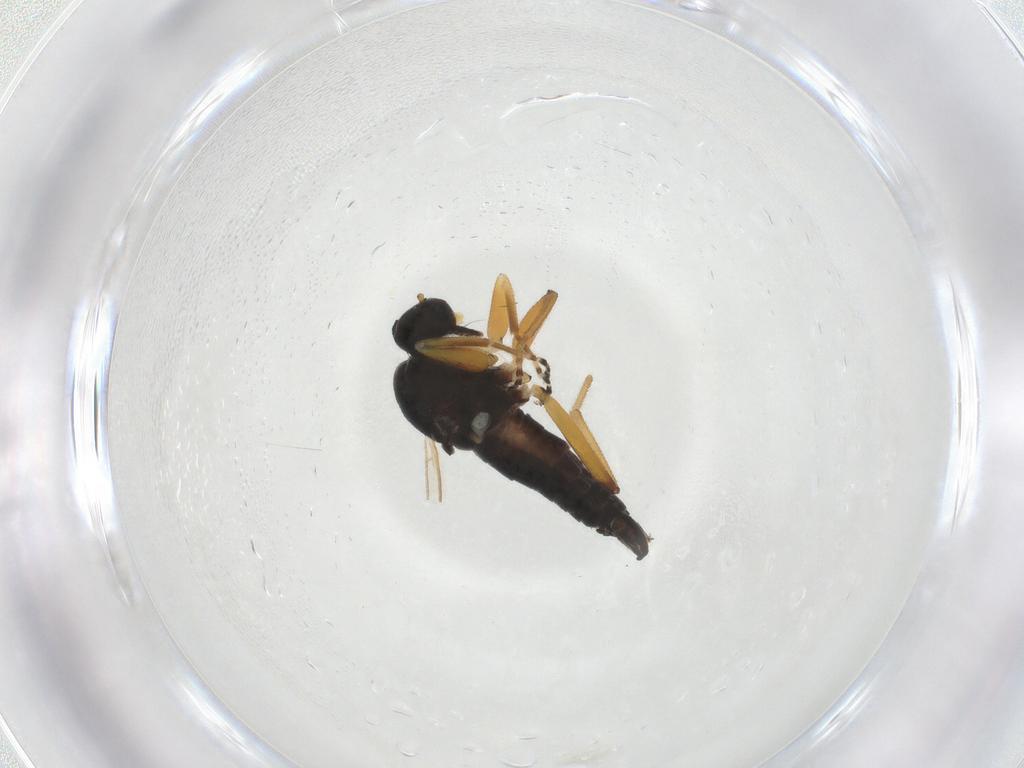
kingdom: Animalia
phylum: Arthropoda
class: Insecta
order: Diptera
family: Hybotidae
